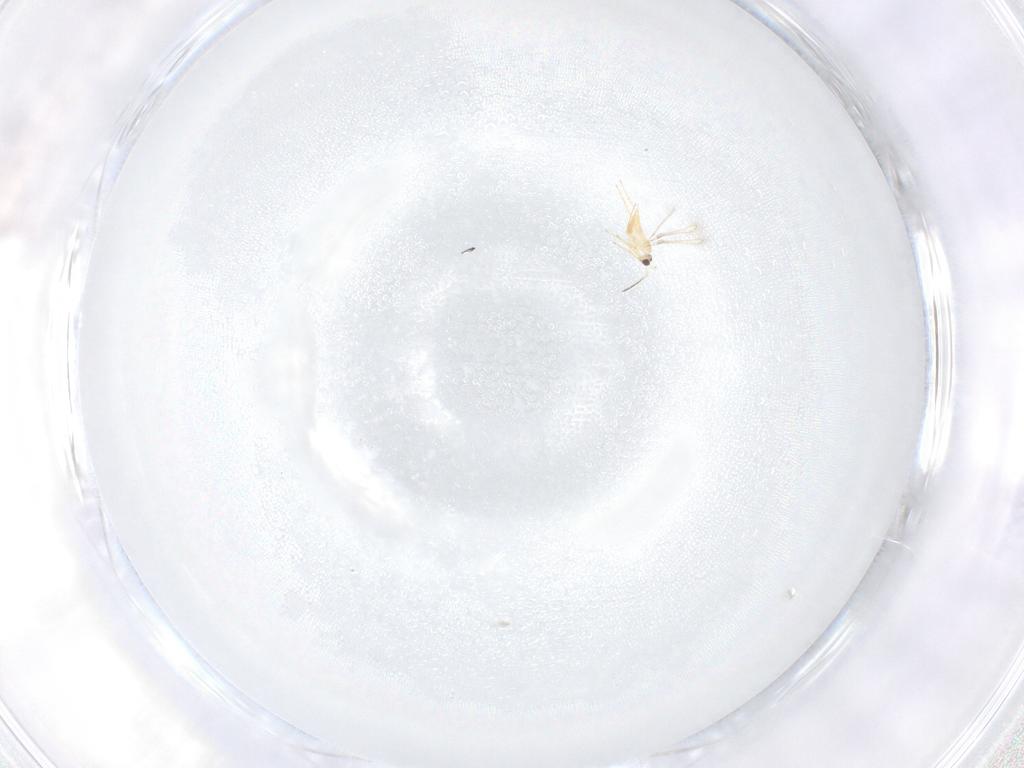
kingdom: Animalia
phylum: Arthropoda
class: Insecta
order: Hymenoptera
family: Mymaridae
